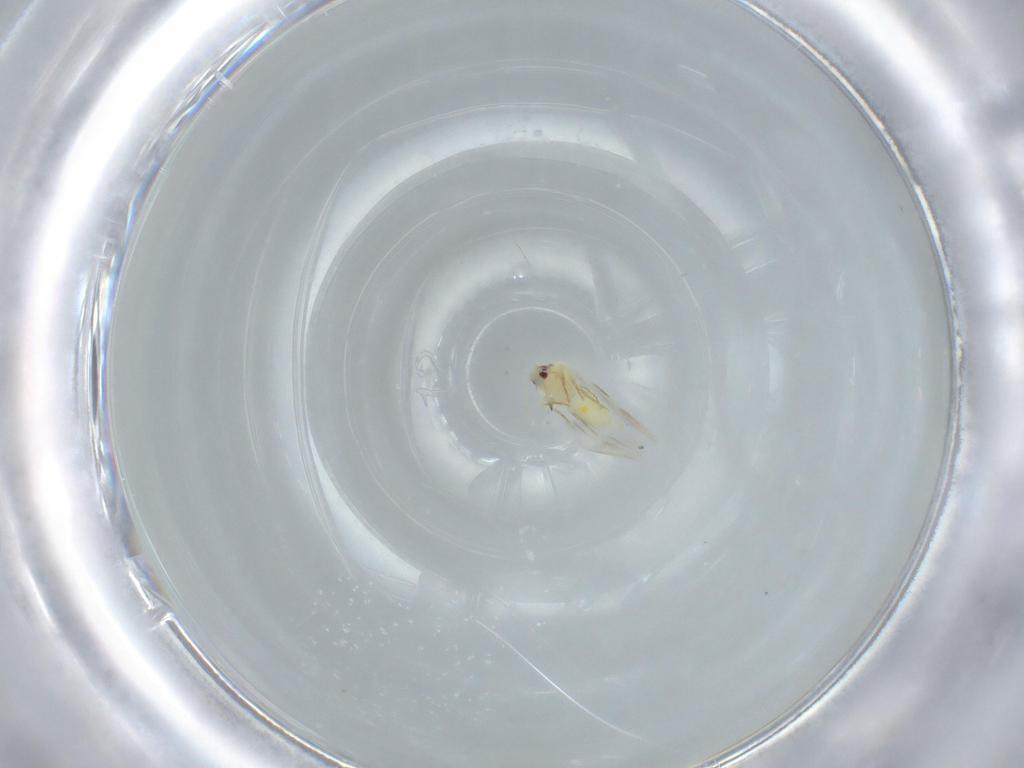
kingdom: Animalia
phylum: Arthropoda
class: Insecta
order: Hemiptera
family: Aleyrodidae
